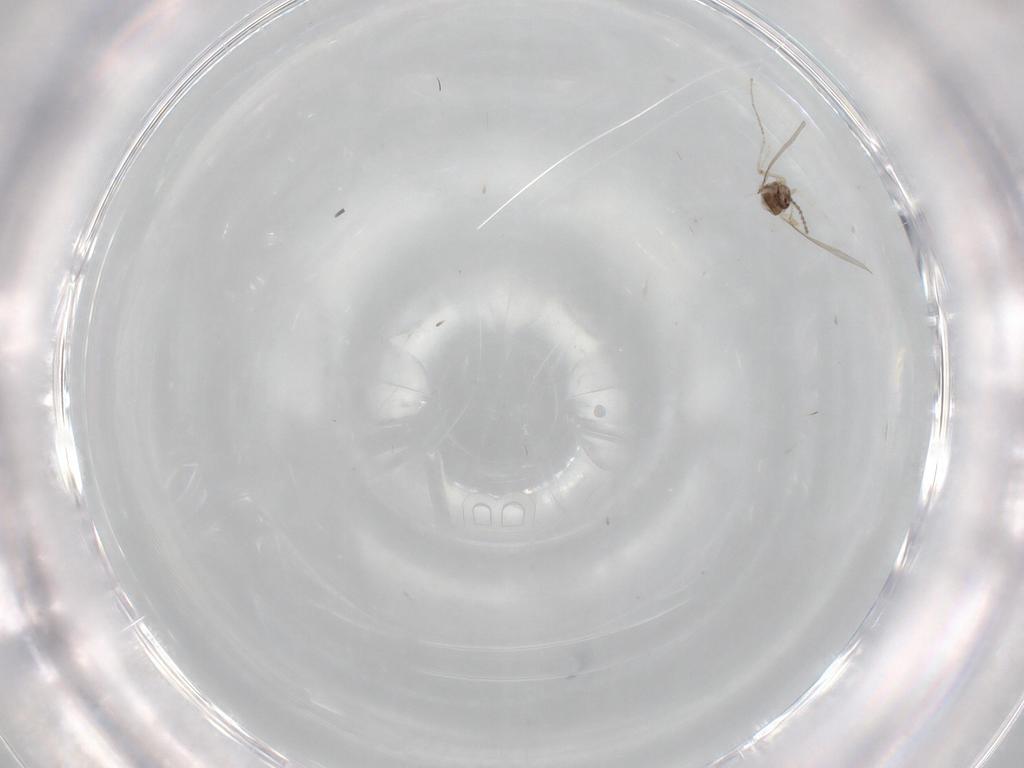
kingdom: Animalia
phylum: Arthropoda
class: Insecta
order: Diptera
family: Cecidomyiidae
